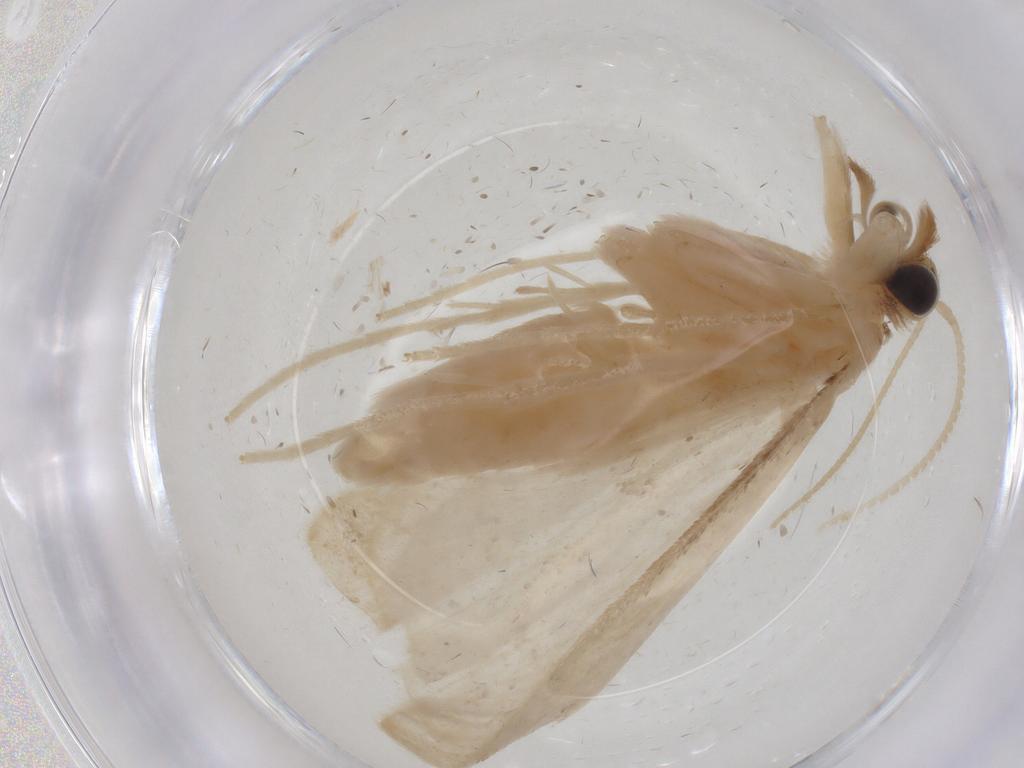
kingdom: Animalia
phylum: Arthropoda
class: Insecta
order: Lepidoptera
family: Crambidae
